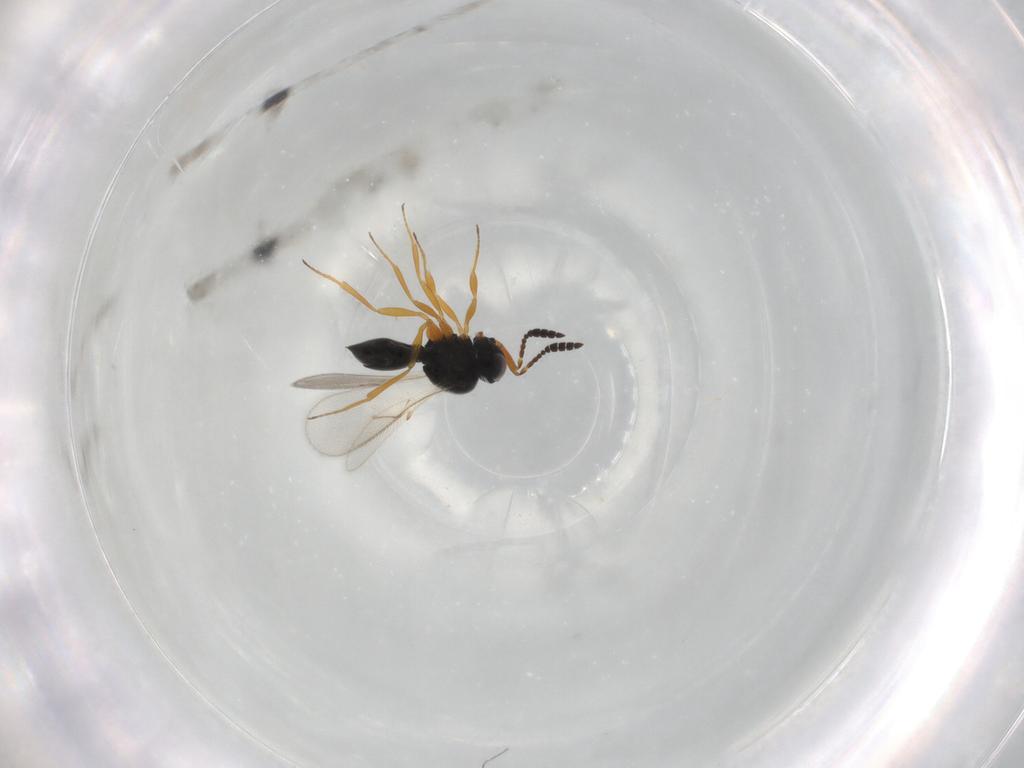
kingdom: Animalia
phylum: Arthropoda
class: Insecta
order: Hymenoptera
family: Scelionidae
